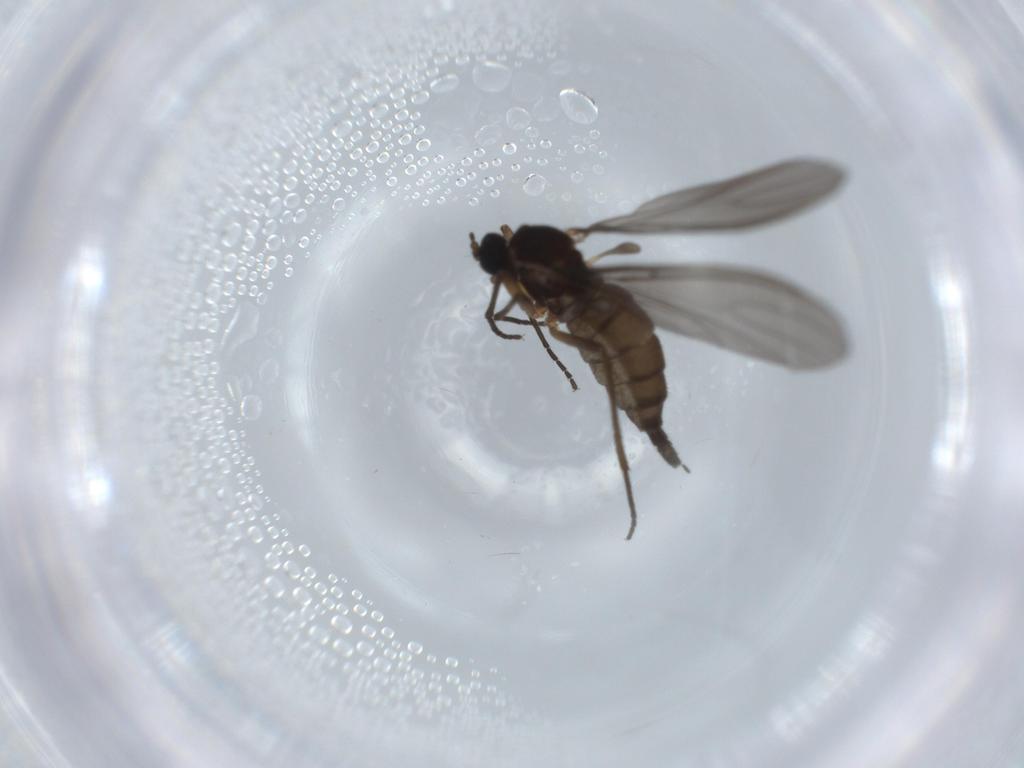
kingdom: Animalia
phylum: Arthropoda
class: Insecta
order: Diptera
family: Sciaridae
